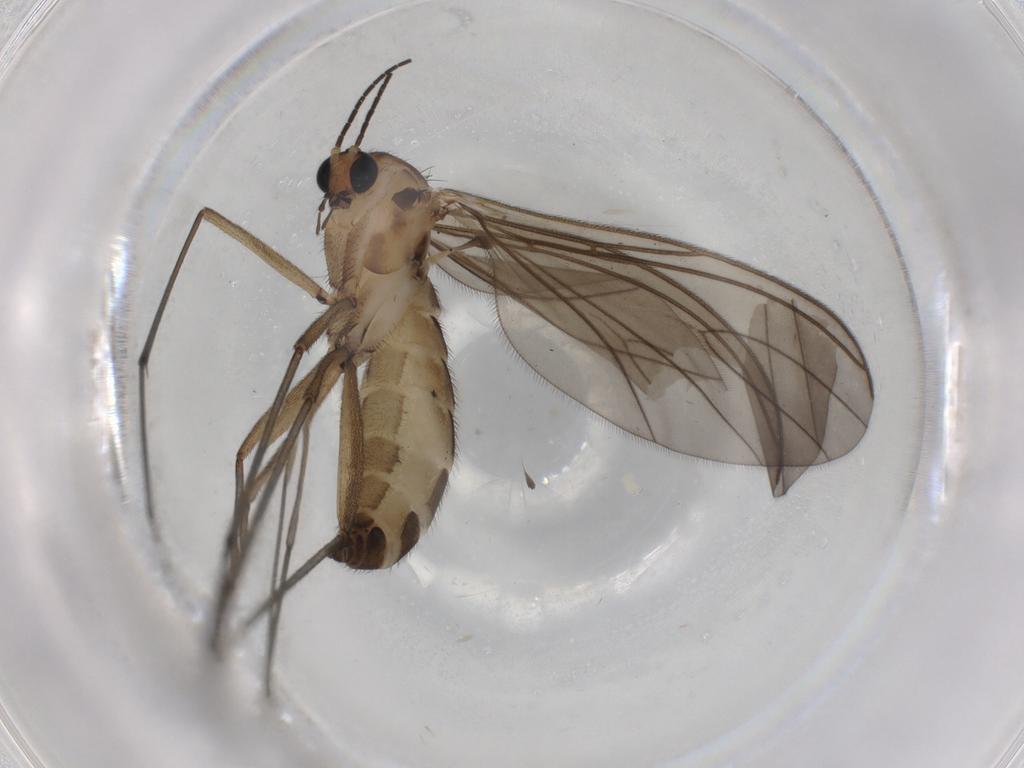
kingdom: Animalia
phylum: Arthropoda
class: Insecta
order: Diptera
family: Sciaridae
